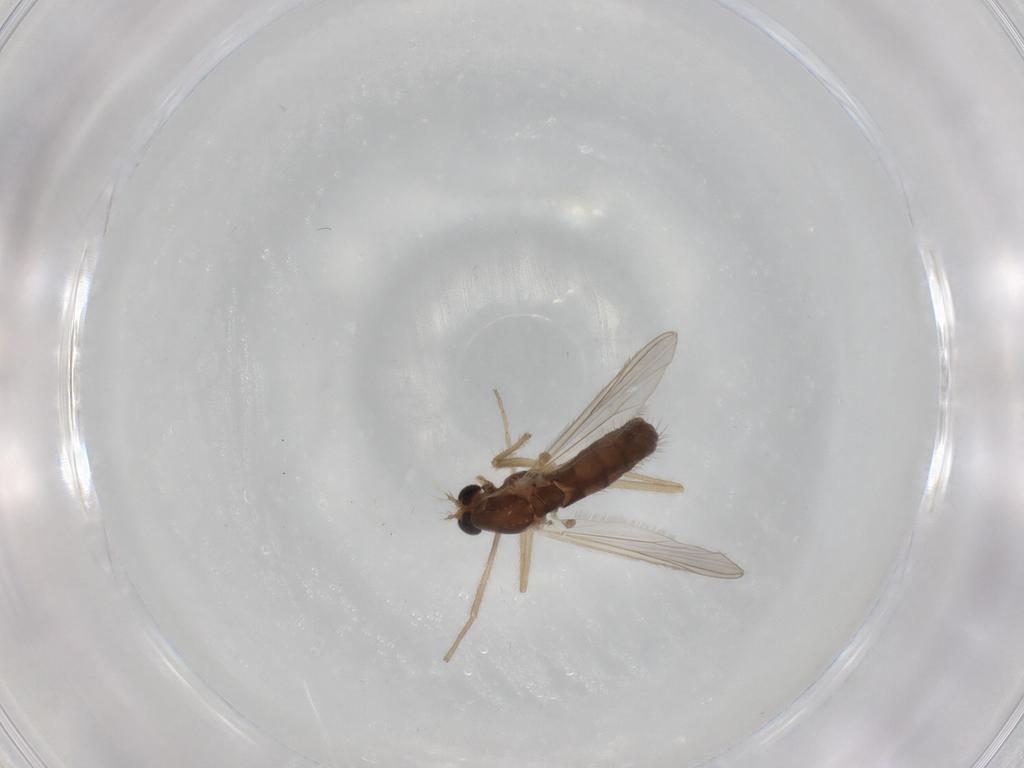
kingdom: Animalia
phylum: Arthropoda
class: Insecta
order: Diptera
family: Chironomidae
